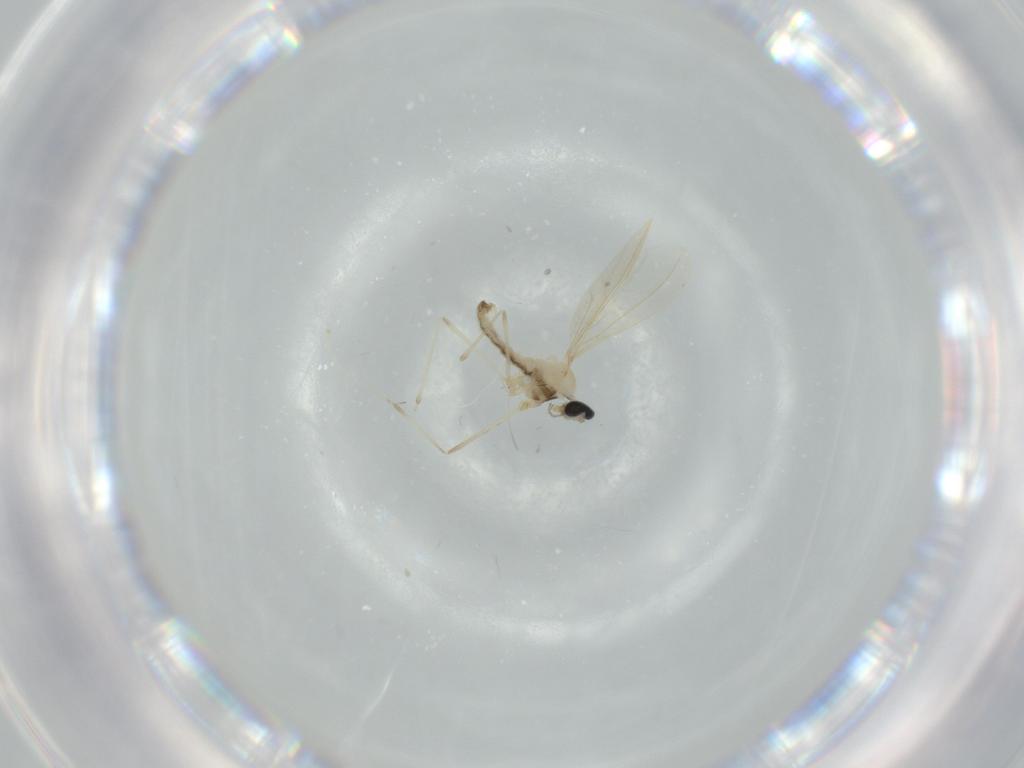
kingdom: Animalia
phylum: Arthropoda
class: Insecta
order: Diptera
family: Cecidomyiidae
